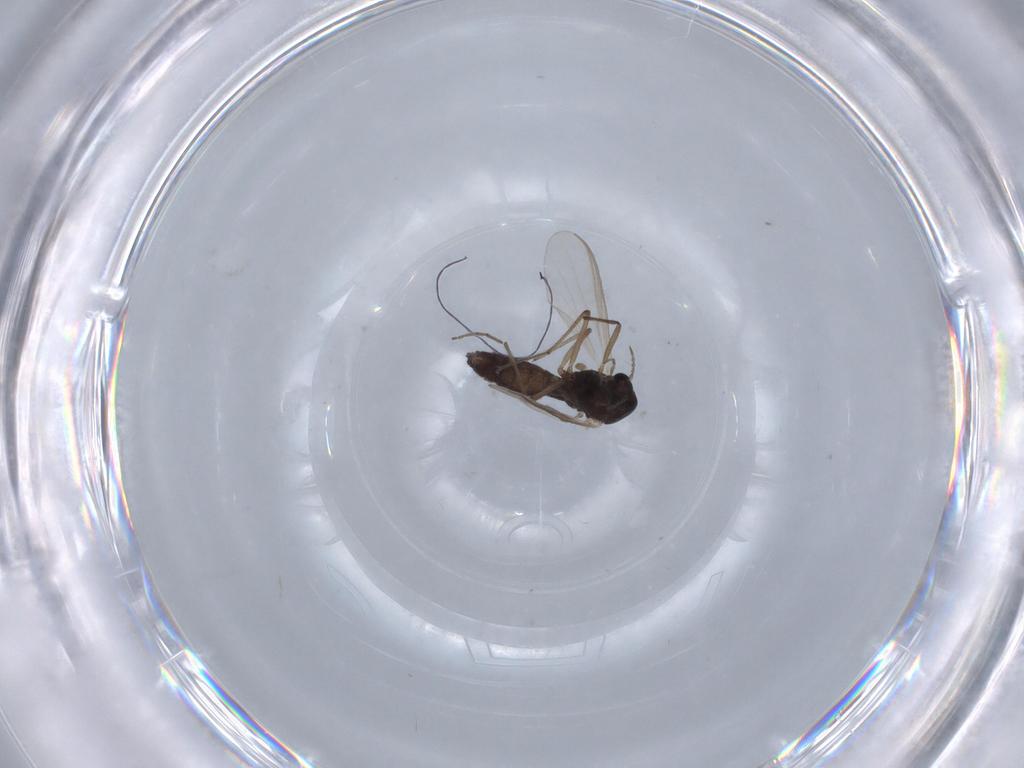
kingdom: Animalia
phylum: Arthropoda
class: Insecta
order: Diptera
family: Chironomidae
